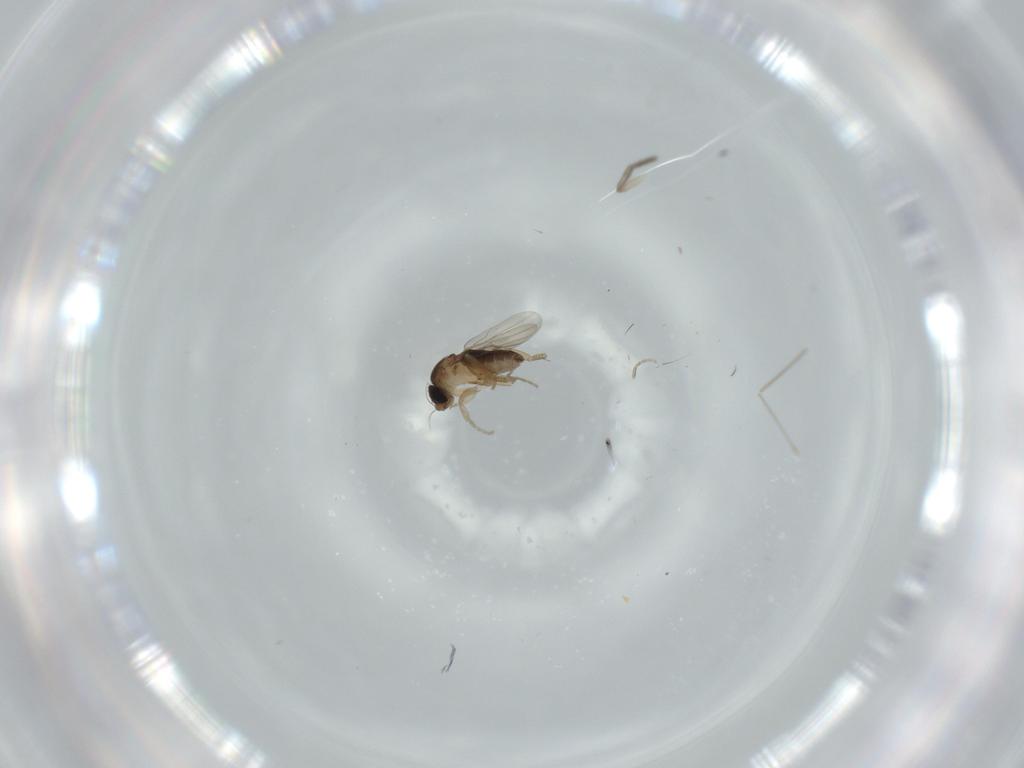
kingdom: Animalia
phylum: Arthropoda
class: Insecta
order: Diptera
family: Phoridae
